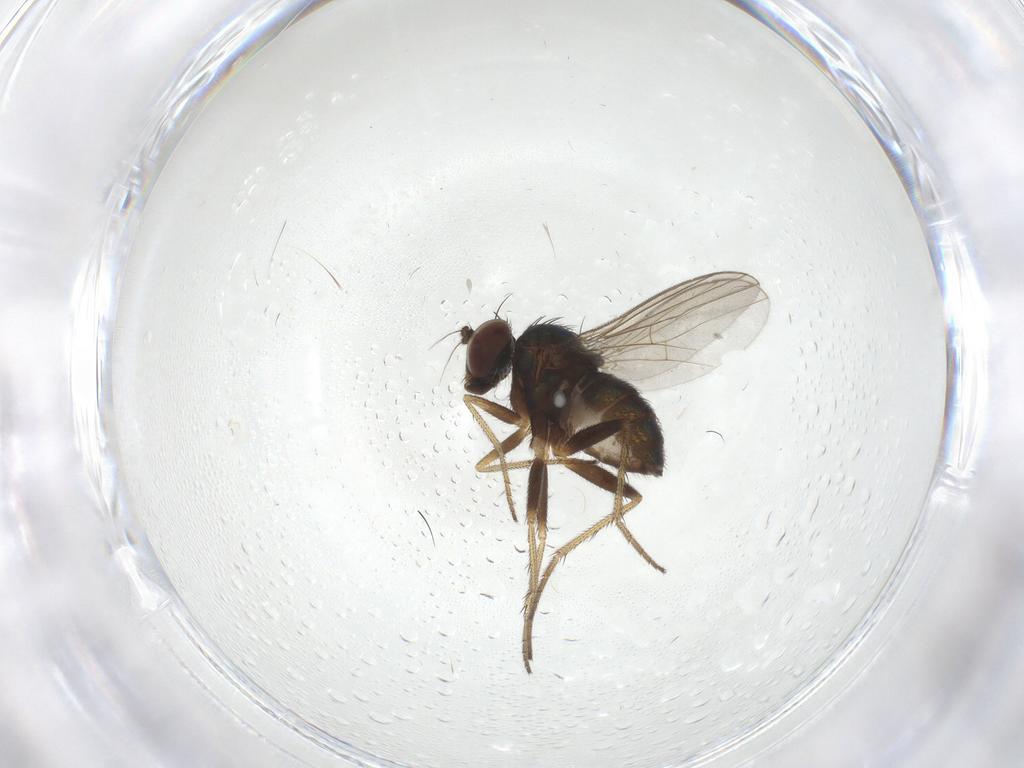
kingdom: Animalia
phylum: Arthropoda
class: Insecta
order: Diptera
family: Dolichopodidae
